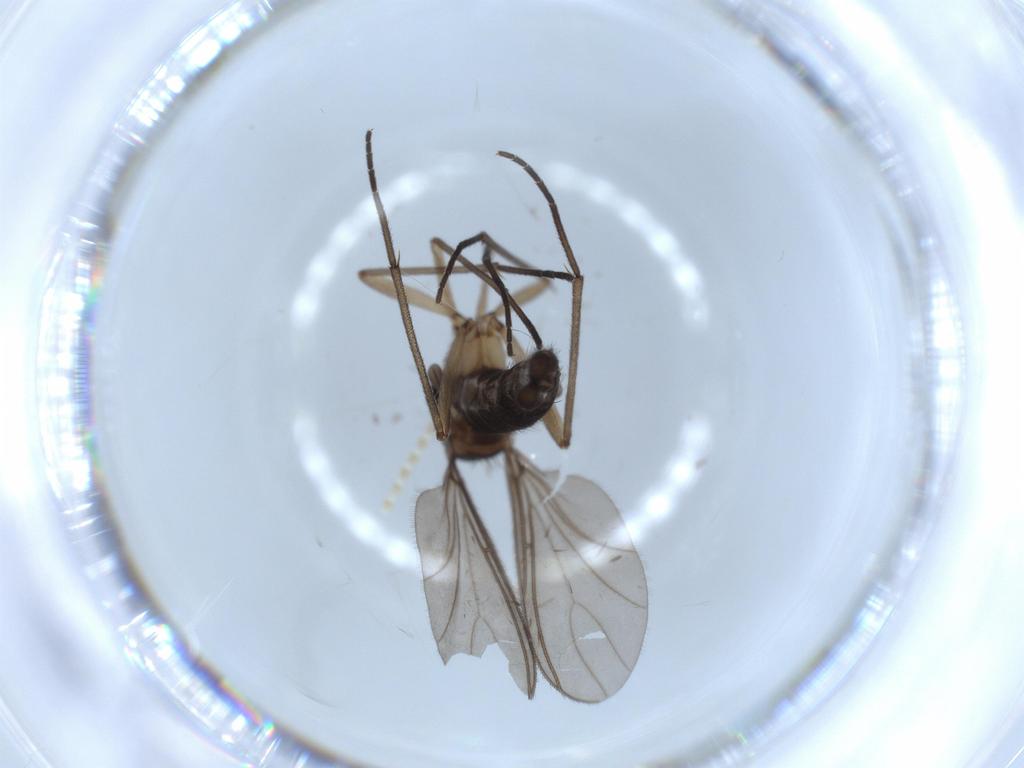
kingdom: Animalia
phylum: Arthropoda
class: Insecta
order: Diptera
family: Sciaridae
